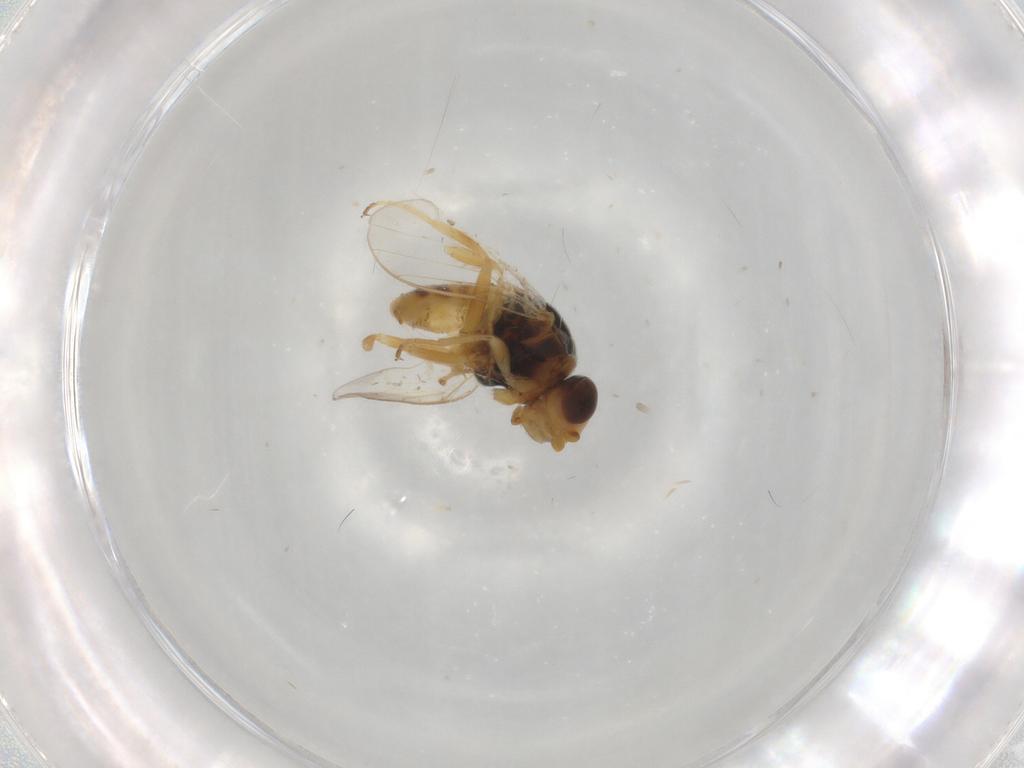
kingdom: Animalia
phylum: Arthropoda
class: Insecta
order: Diptera
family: Chloropidae
